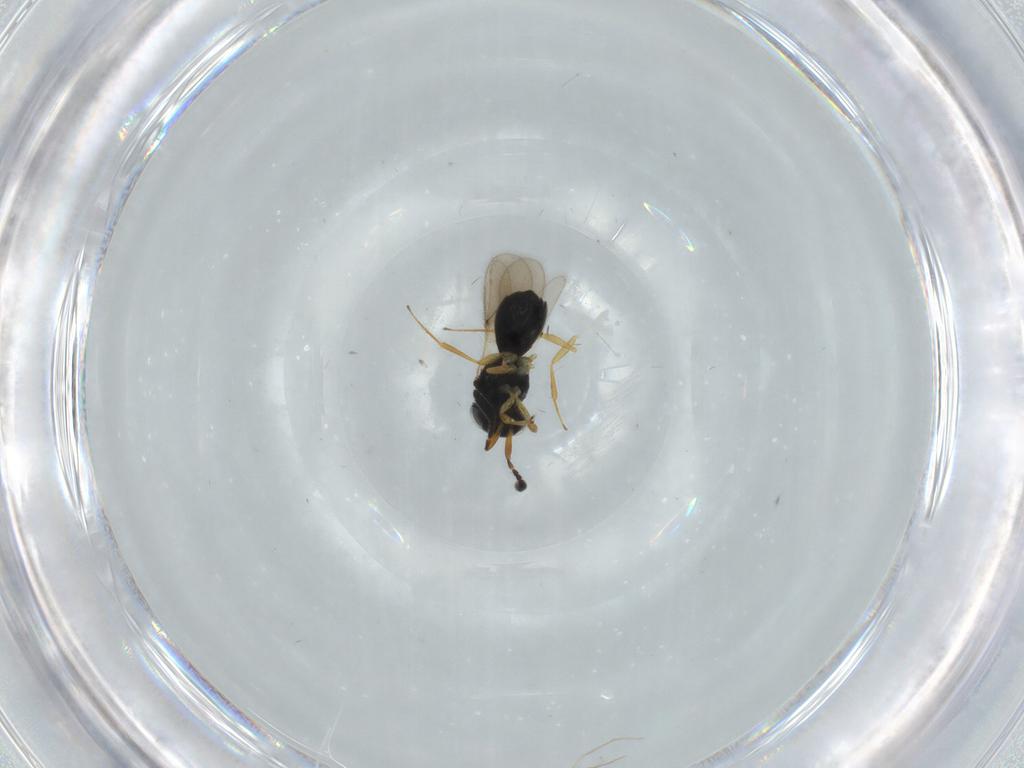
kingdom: Animalia
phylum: Arthropoda
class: Insecta
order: Hymenoptera
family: Scelionidae
